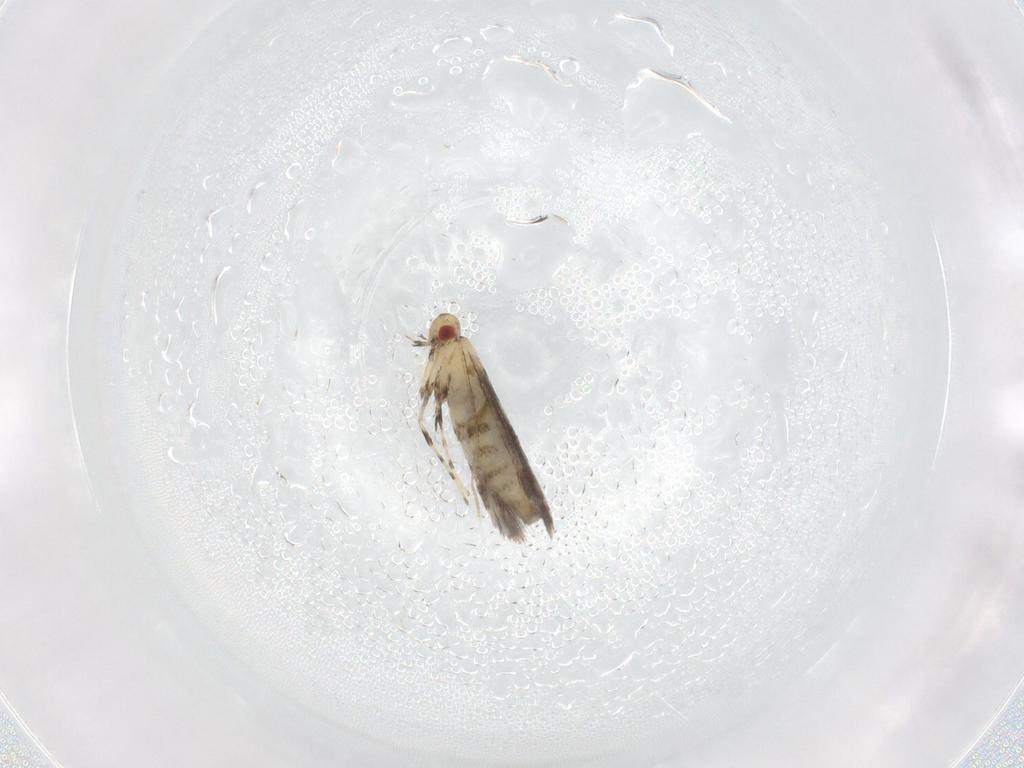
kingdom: Animalia
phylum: Arthropoda
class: Insecta
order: Lepidoptera
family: Gracillariidae
